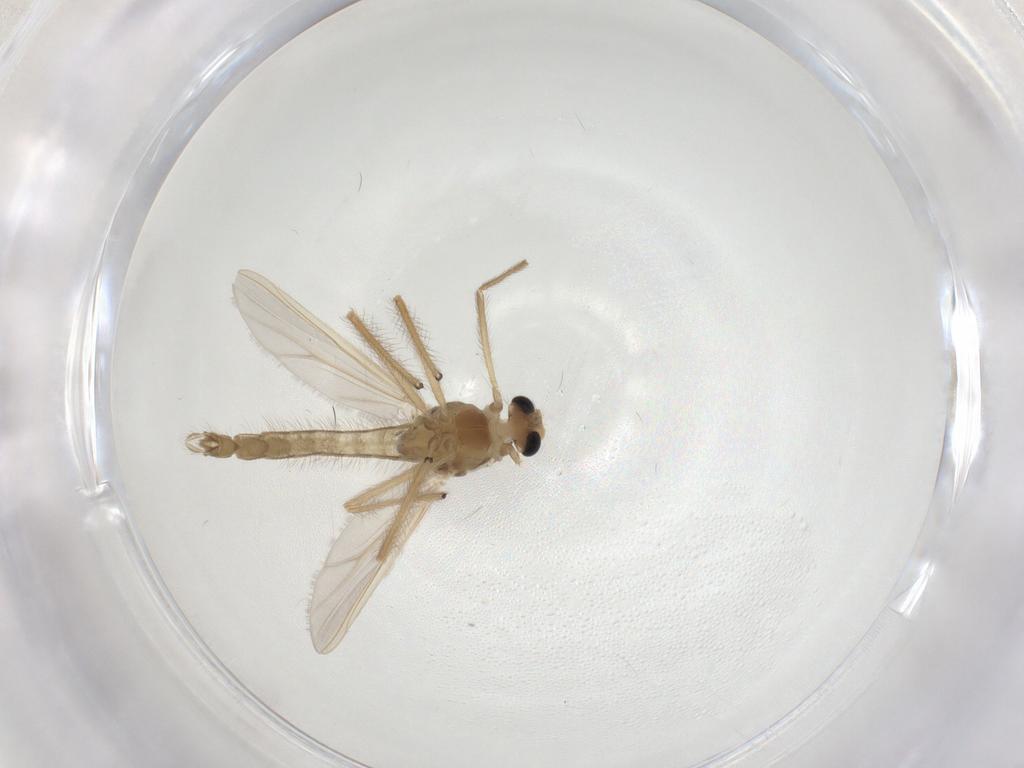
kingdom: Animalia
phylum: Arthropoda
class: Insecta
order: Diptera
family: Chironomidae
